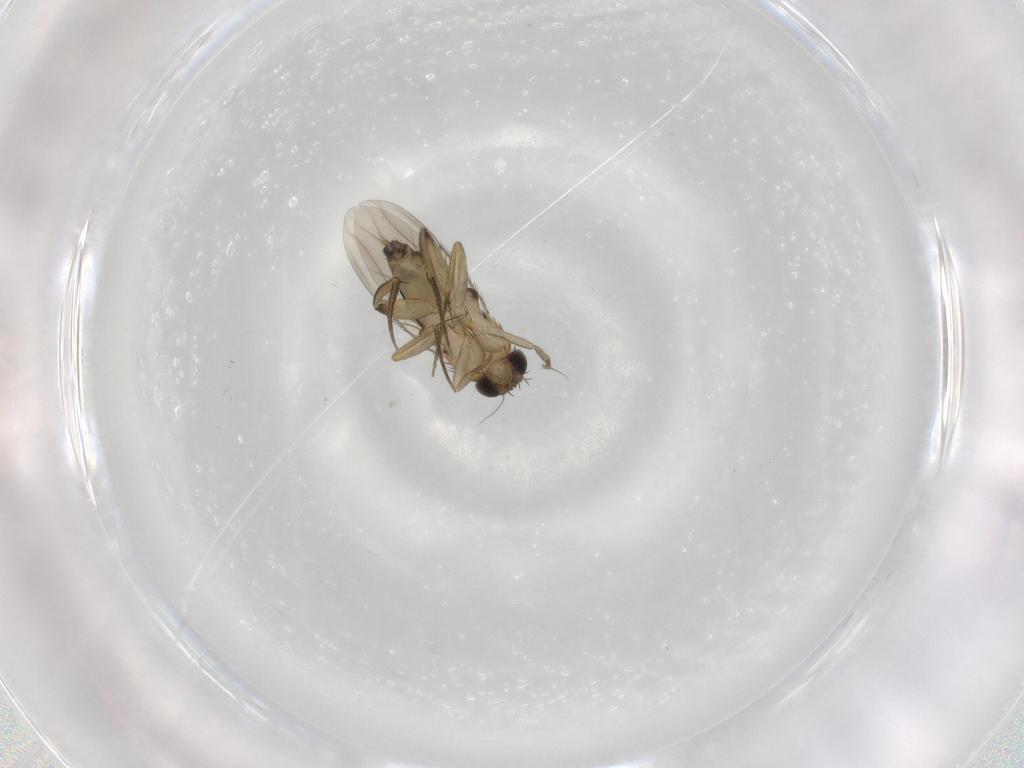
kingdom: Animalia
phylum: Arthropoda
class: Insecta
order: Diptera
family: Phoridae
